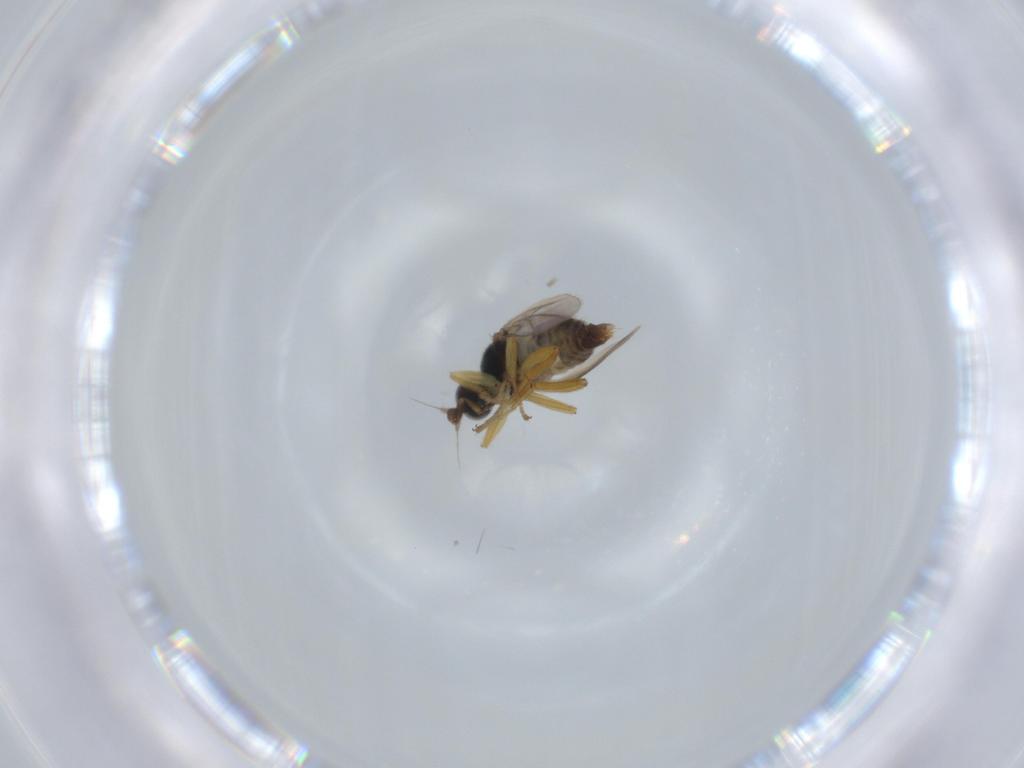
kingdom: Animalia
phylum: Arthropoda
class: Insecta
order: Diptera
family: Hybotidae
